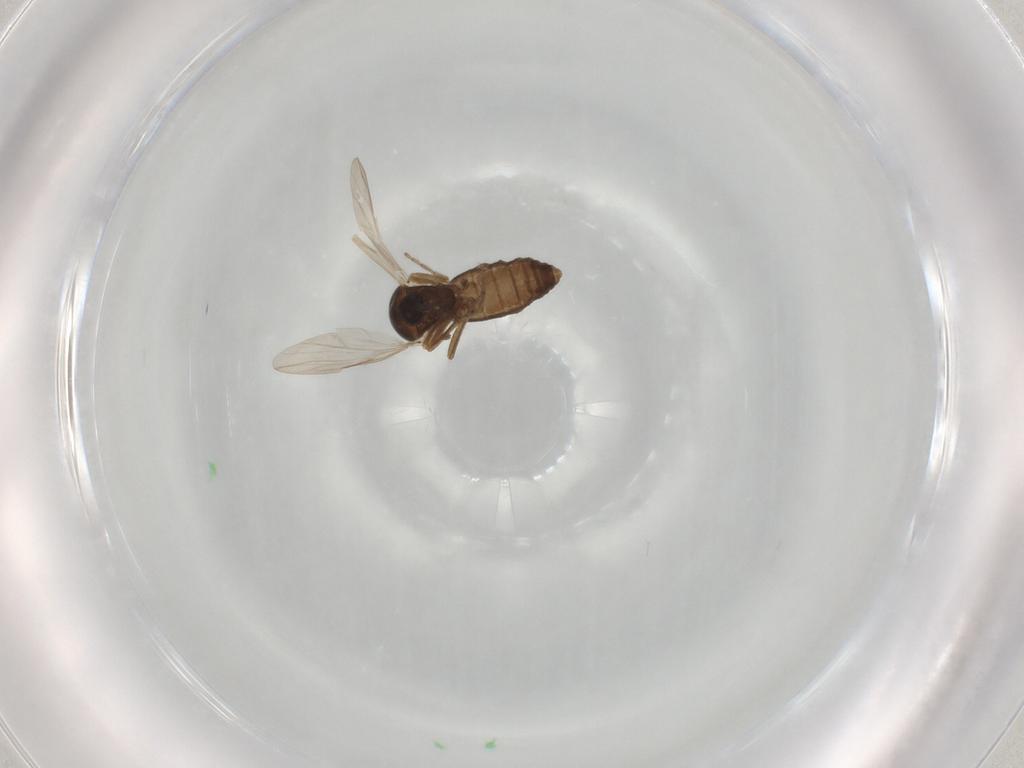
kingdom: Animalia
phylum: Arthropoda
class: Insecta
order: Diptera
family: Ceratopogonidae
